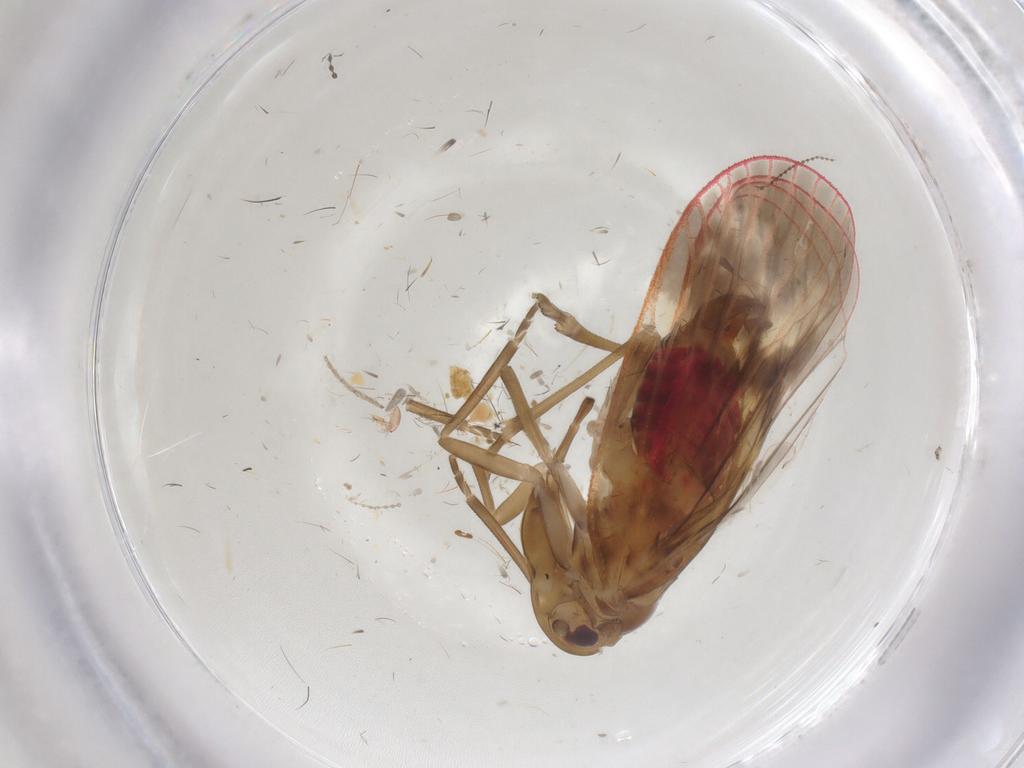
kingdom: Animalia
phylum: Arthropoda
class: Insecta
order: Hemiptera
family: Achilidae
